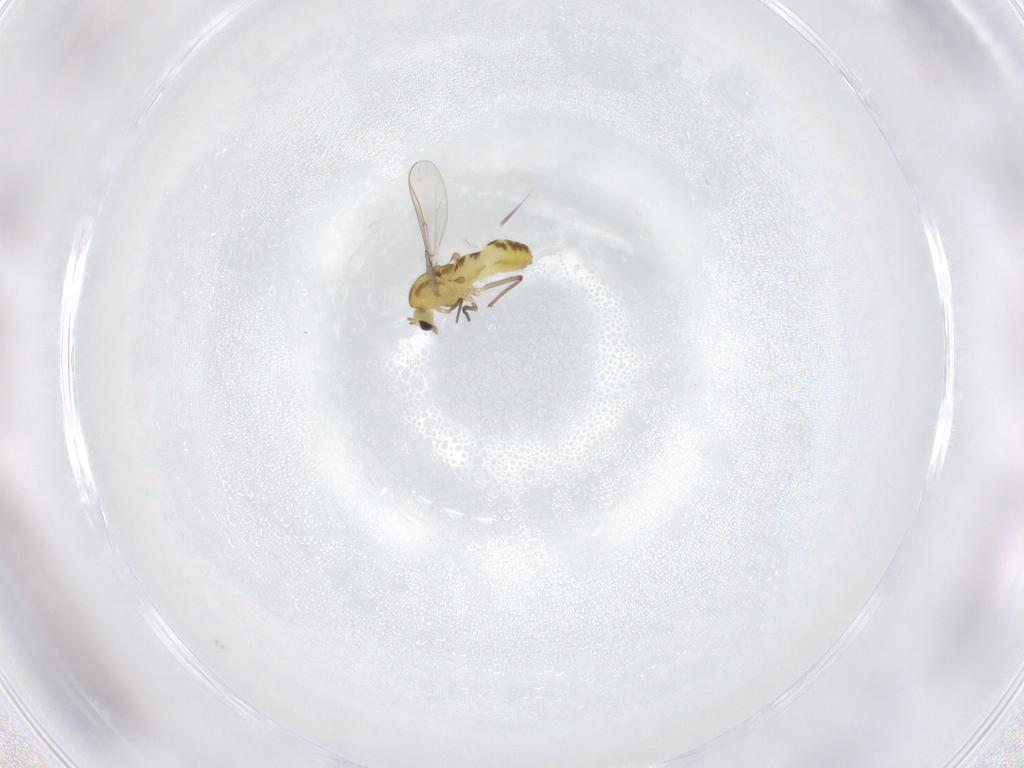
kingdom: Animalia
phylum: Arthropoda
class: Insecta
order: Diptera
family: Chironomidae
